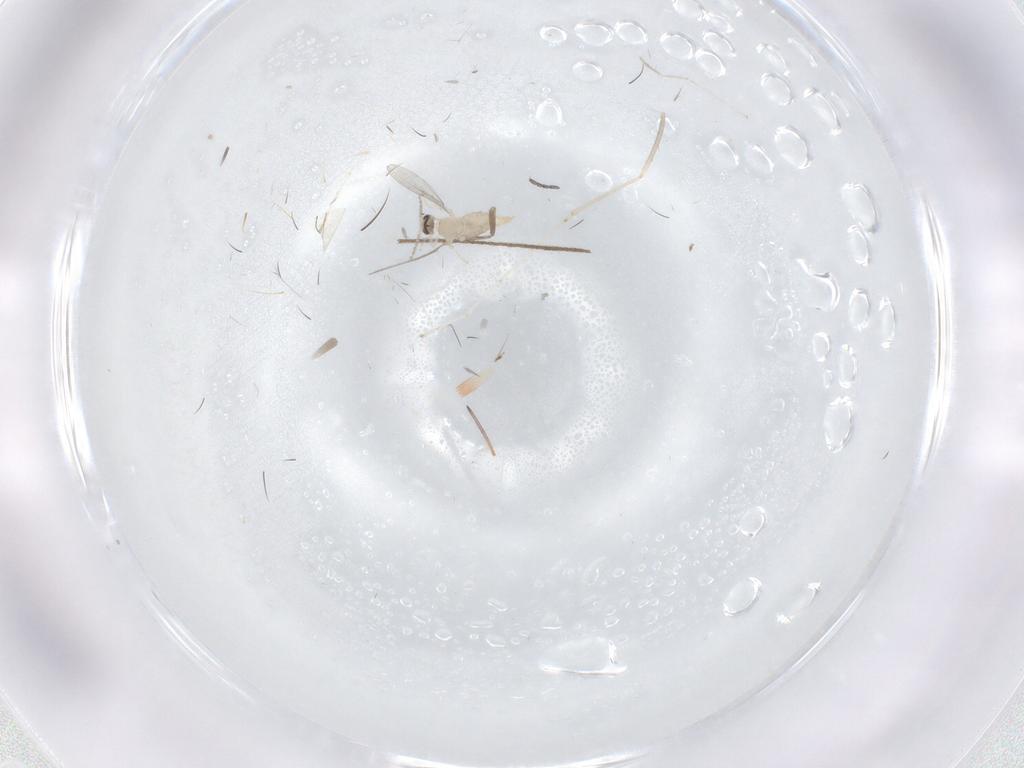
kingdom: Animalia
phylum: Arthropoda
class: Insecta
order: Diptera
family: Cecidomyiidae
